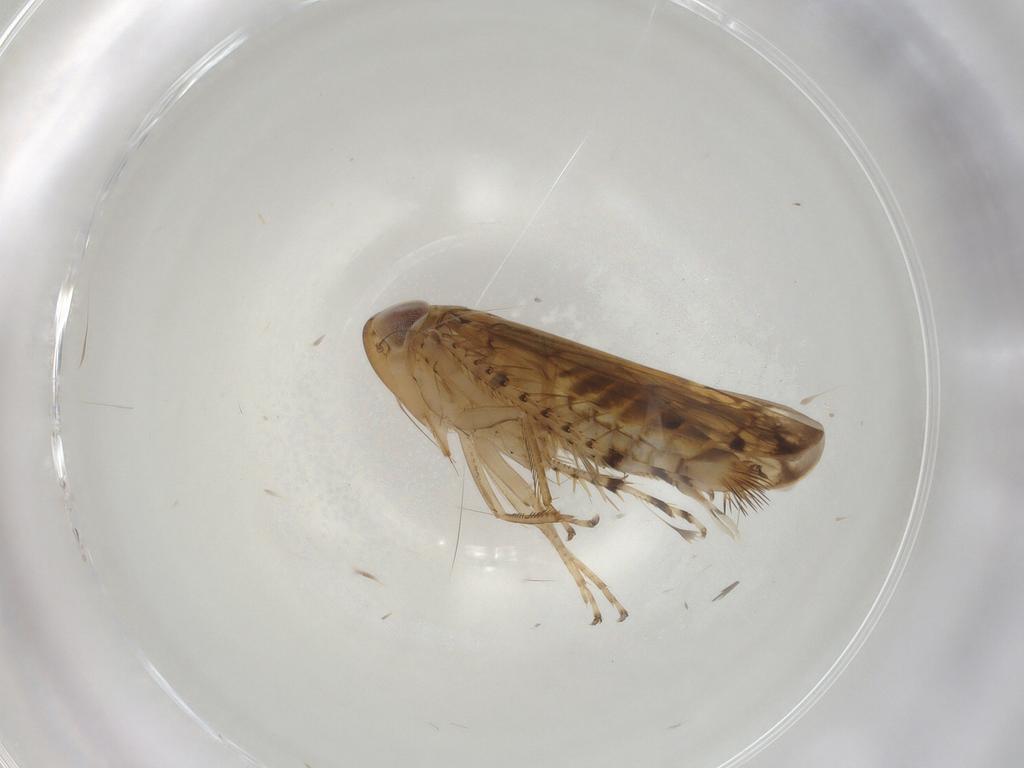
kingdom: Animalia
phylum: Arthropoda
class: Insecta
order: Hemiptera
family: Cicadellidae
